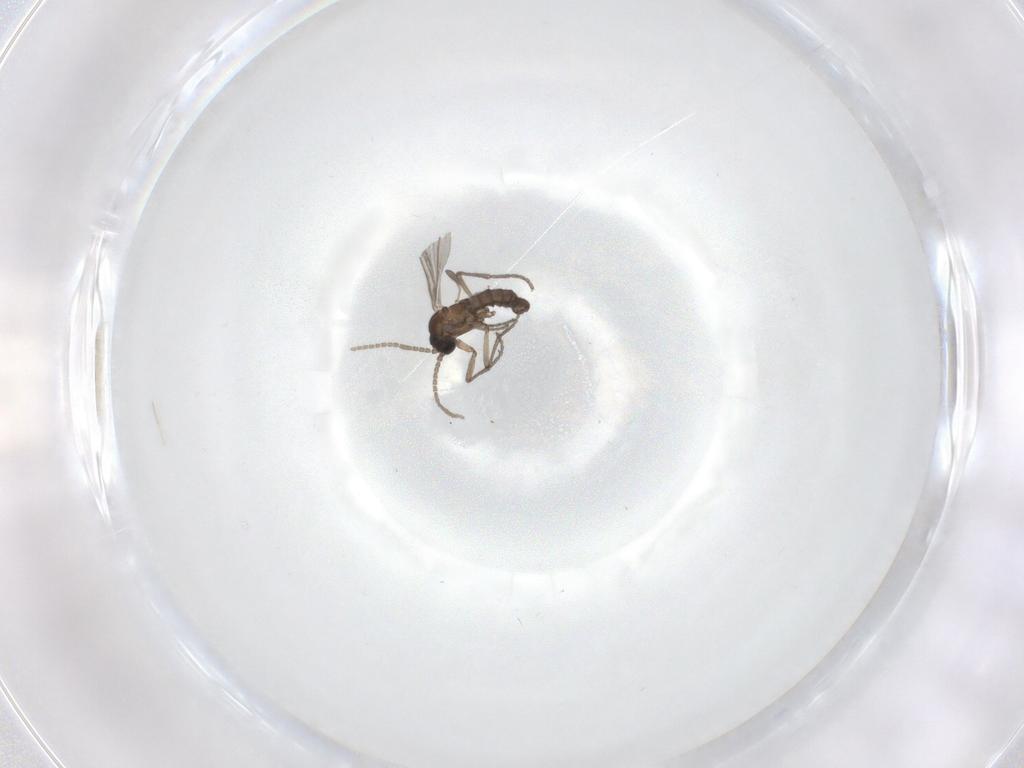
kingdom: Animalia
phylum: Arthropoda
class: Insecta
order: Diptera
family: Sciaridae
